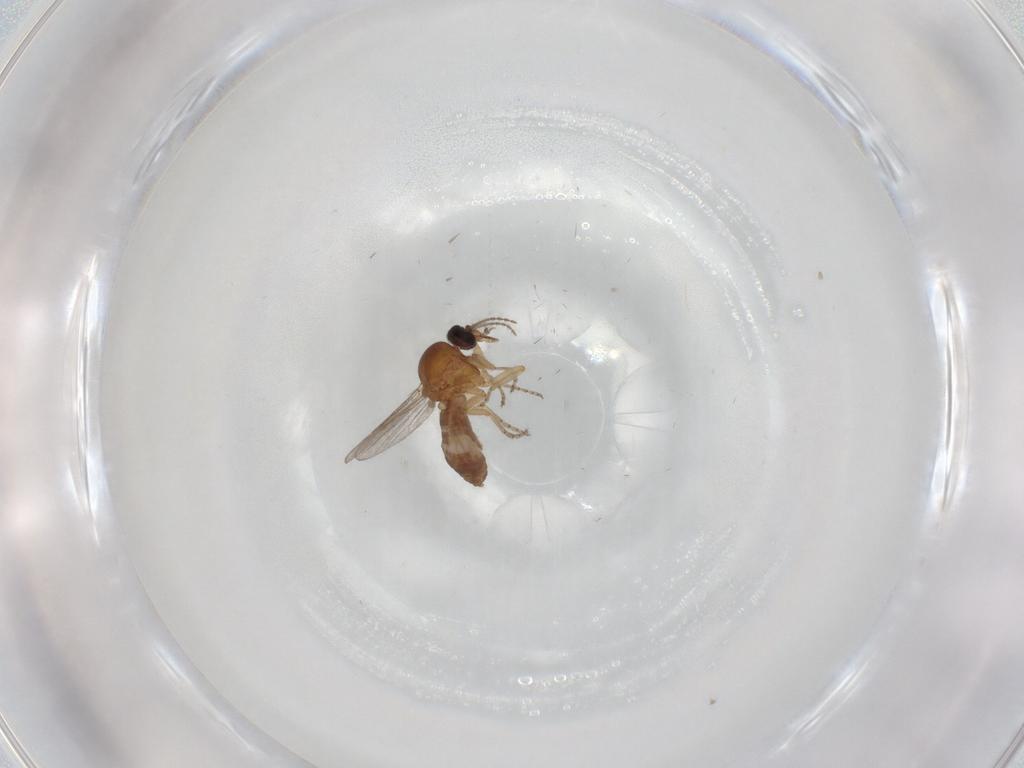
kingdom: Animalia
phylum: Arthropoda
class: Insecta
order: Diptera
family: Ceratopogonidae
